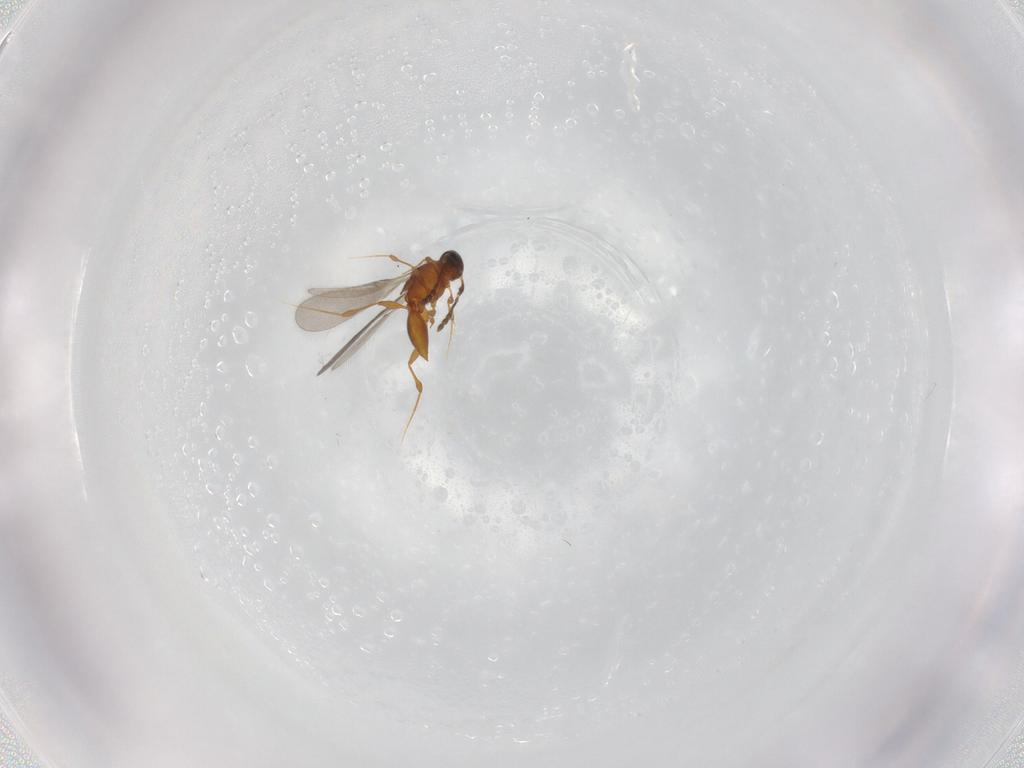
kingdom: Animalia
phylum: Arthropoda
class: Insecta
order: Hymenoptera
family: Platygastridae
